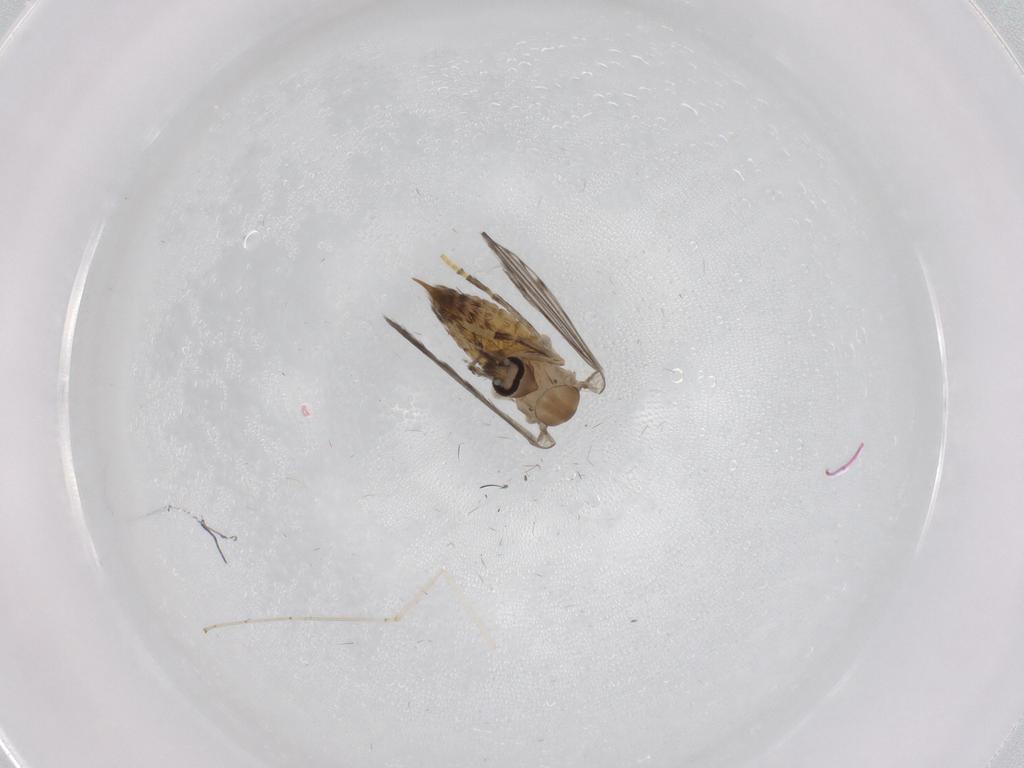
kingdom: Animalia
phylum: Arthropoda
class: Insecta
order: Diptera
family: Psychodidae
